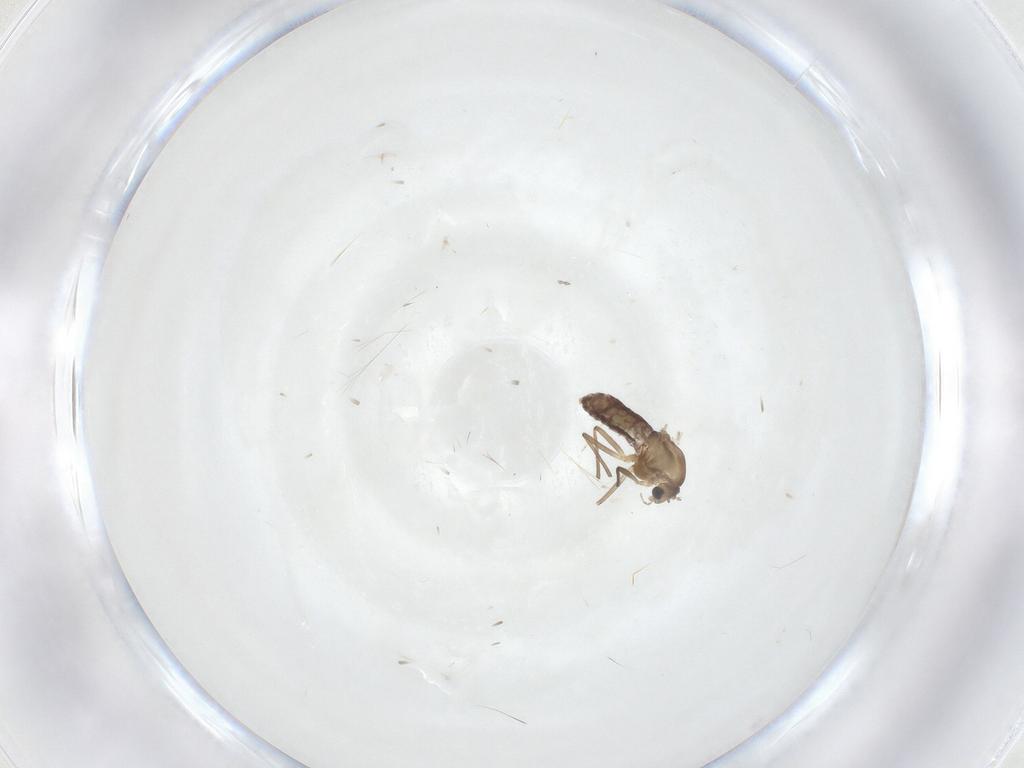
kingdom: Animalia
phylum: Arthropoda
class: Insecta
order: Diptera
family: Chironomidae
